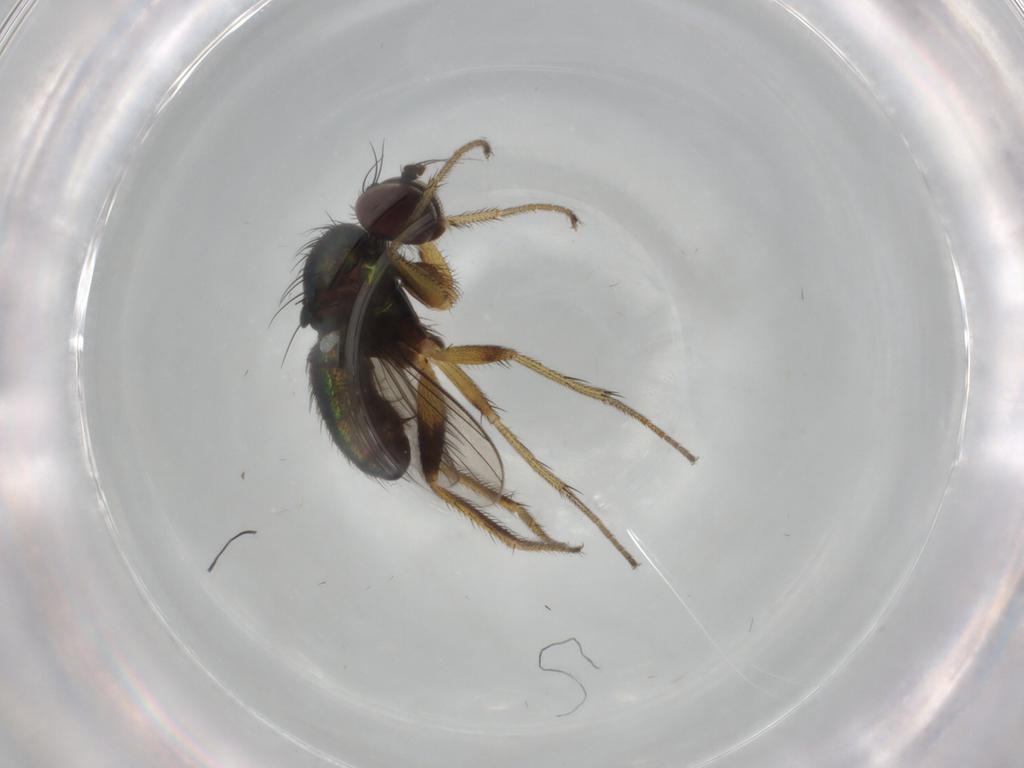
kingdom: Animalia
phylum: Arthropoda
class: Insecta
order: Diptera
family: Dolichopodidae
